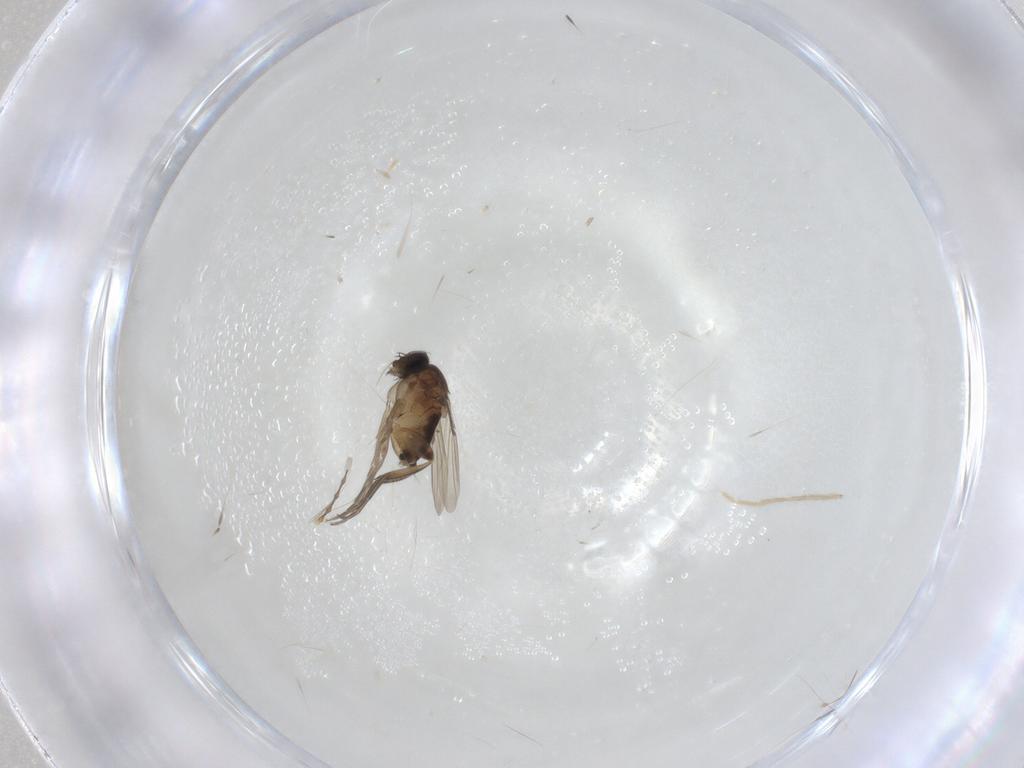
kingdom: Animalia
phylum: Arthropoda
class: Insecta
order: Diptera
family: Phoridae
